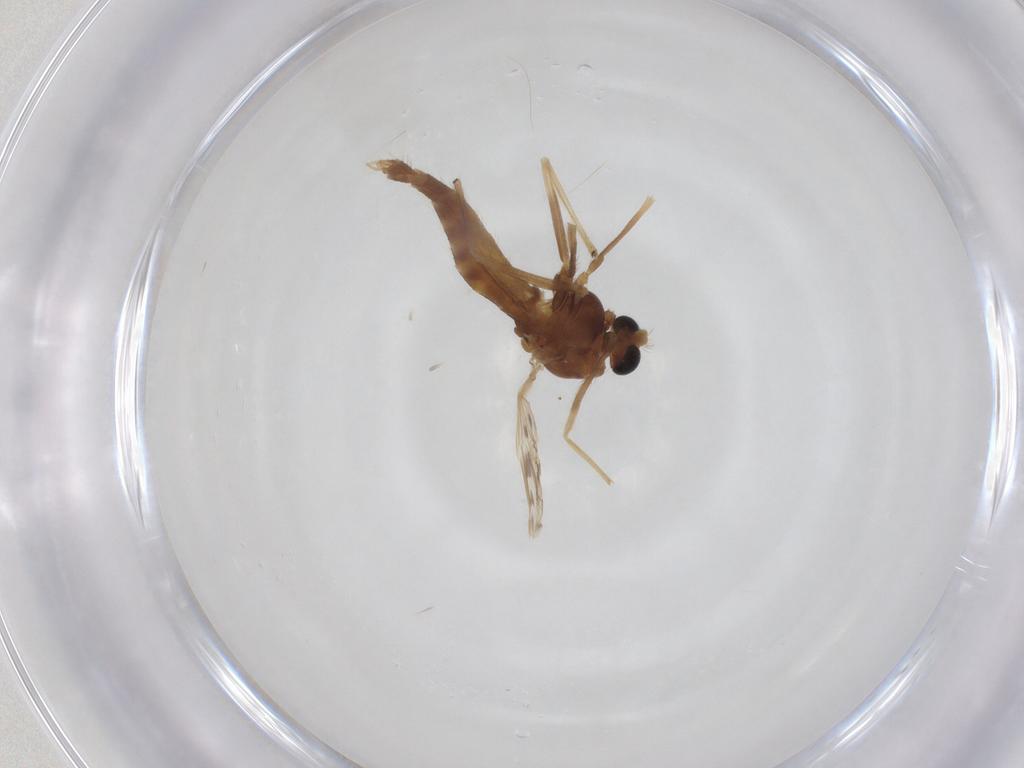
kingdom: Animalia
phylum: Arthropoda
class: Insecta
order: Diptera
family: Chironomidae
